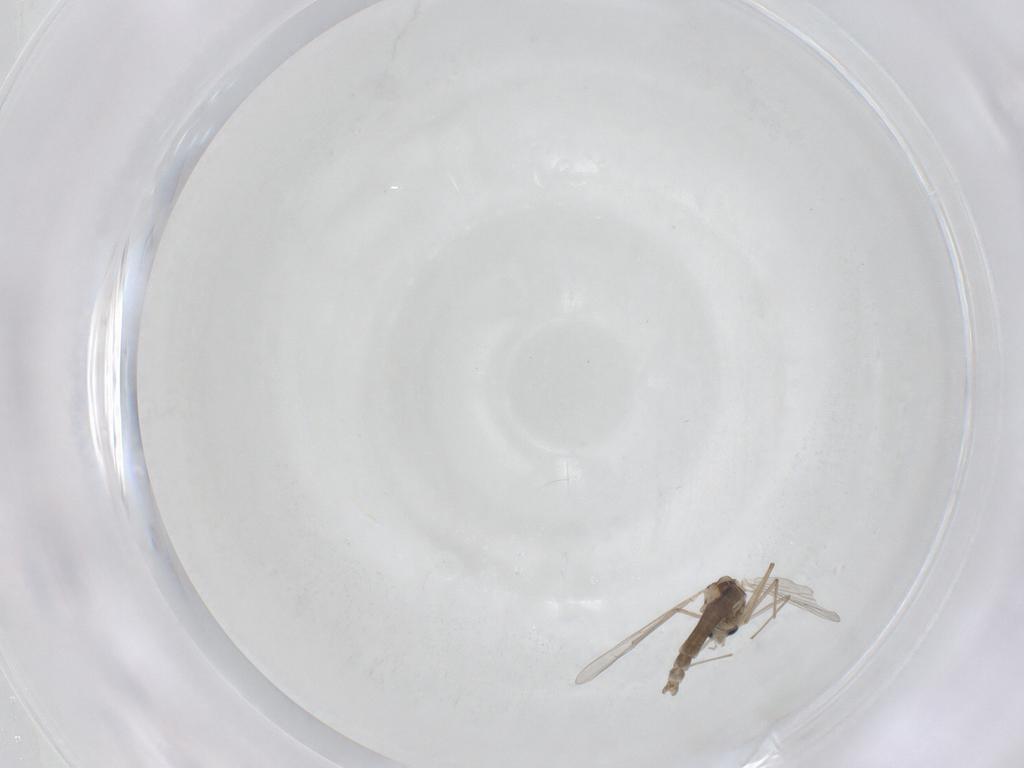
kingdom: Animalia
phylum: Arthropoda
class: Insecta
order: Diptera
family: Chironomidae
